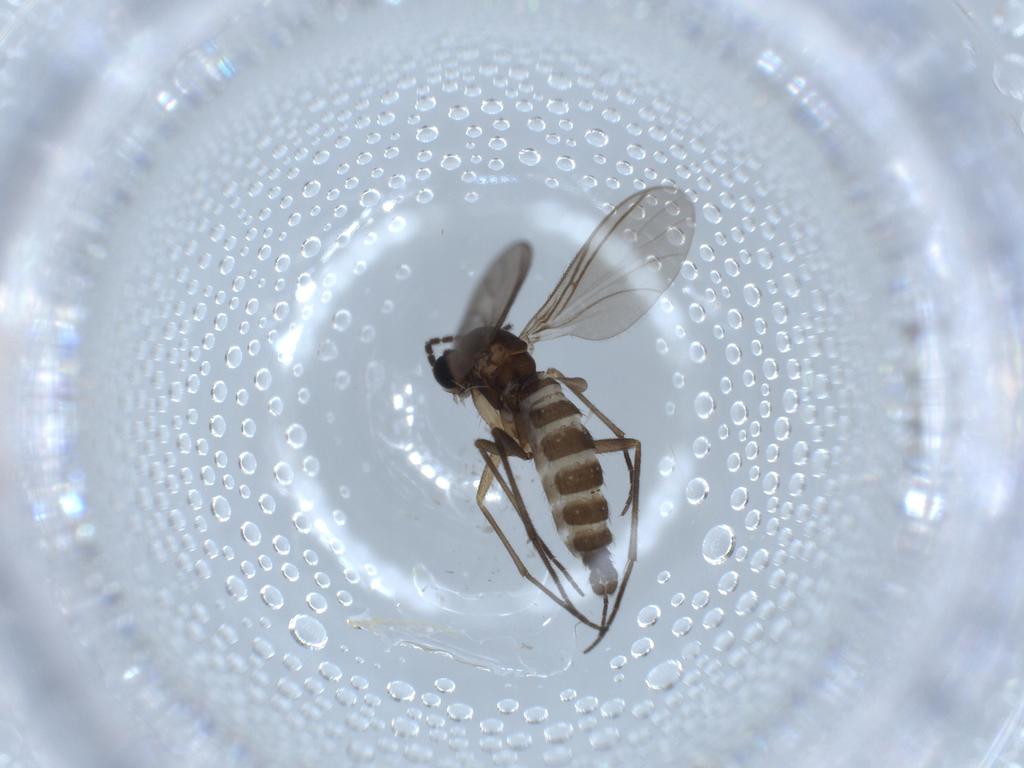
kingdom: Animalia
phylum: Arthropoda
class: Insecta
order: Diptera
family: Sciaridae
